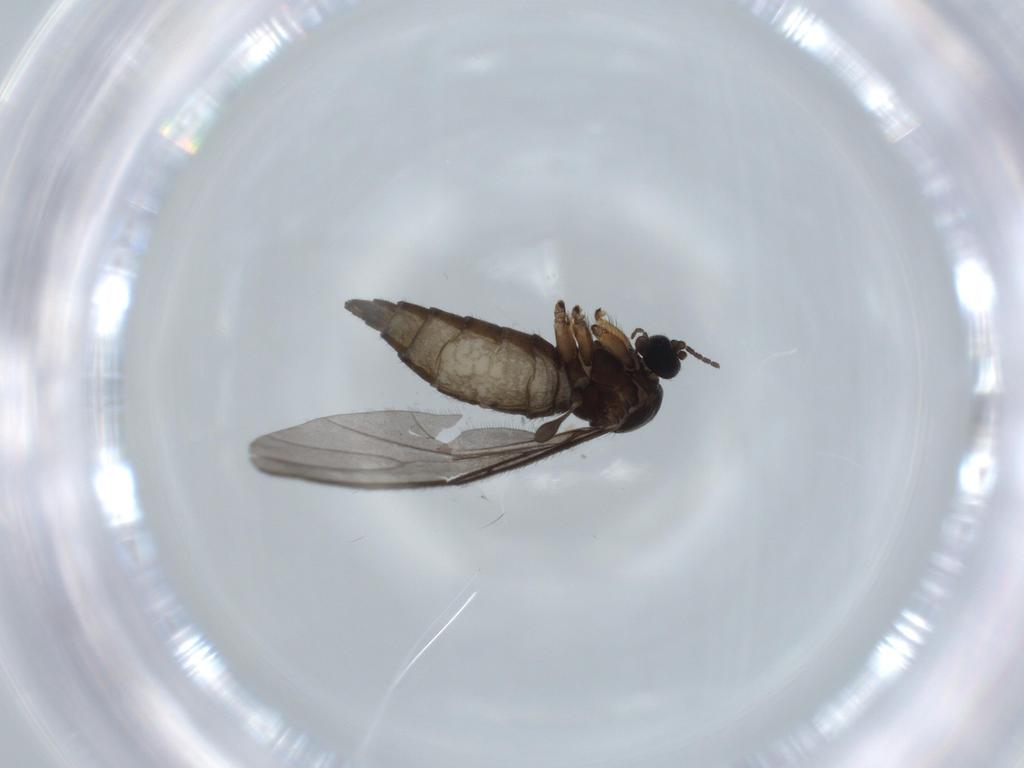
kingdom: Animalia
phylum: Arthropoda
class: Insecta
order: Diptera
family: Sciaridae
